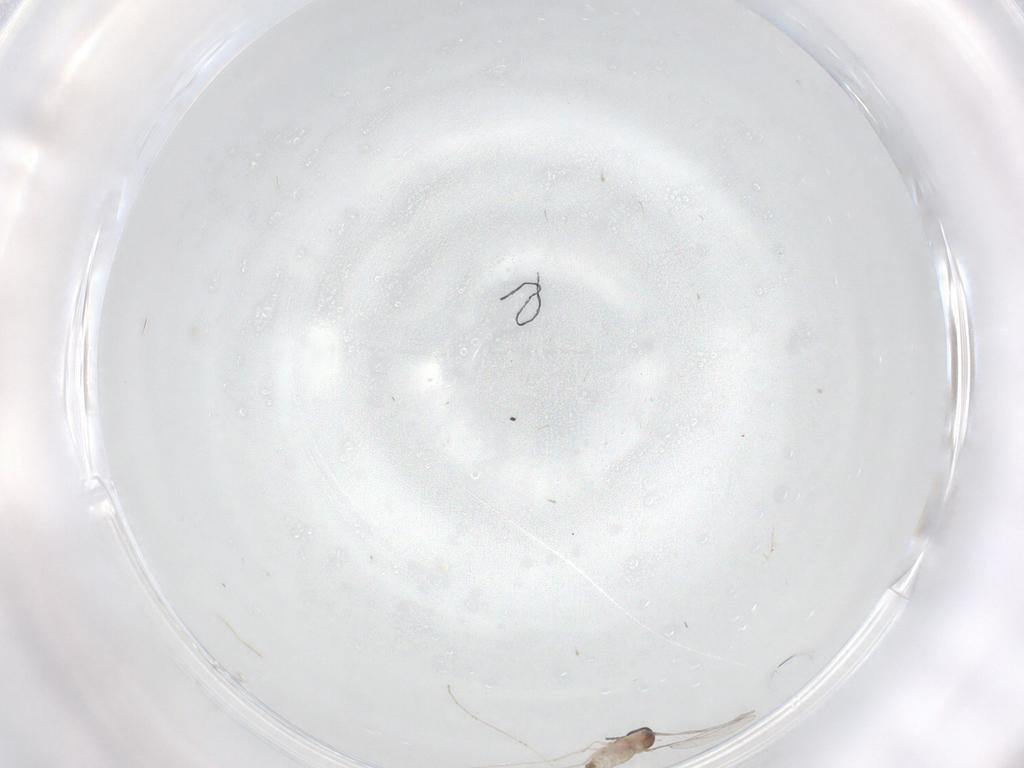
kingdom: Animalia
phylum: Arthropoda
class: Insecta
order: Diptera
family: Cecidomyiidae
